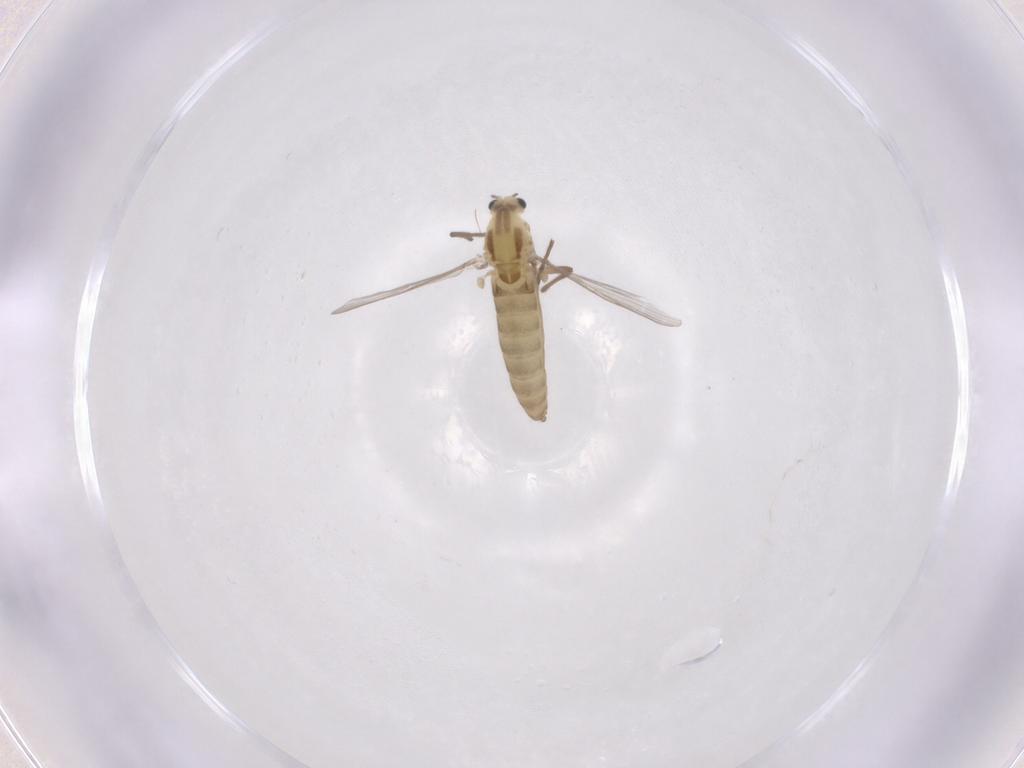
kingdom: Animalia
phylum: Arthropoda
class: Insecta
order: Diptera
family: Chironomidae
